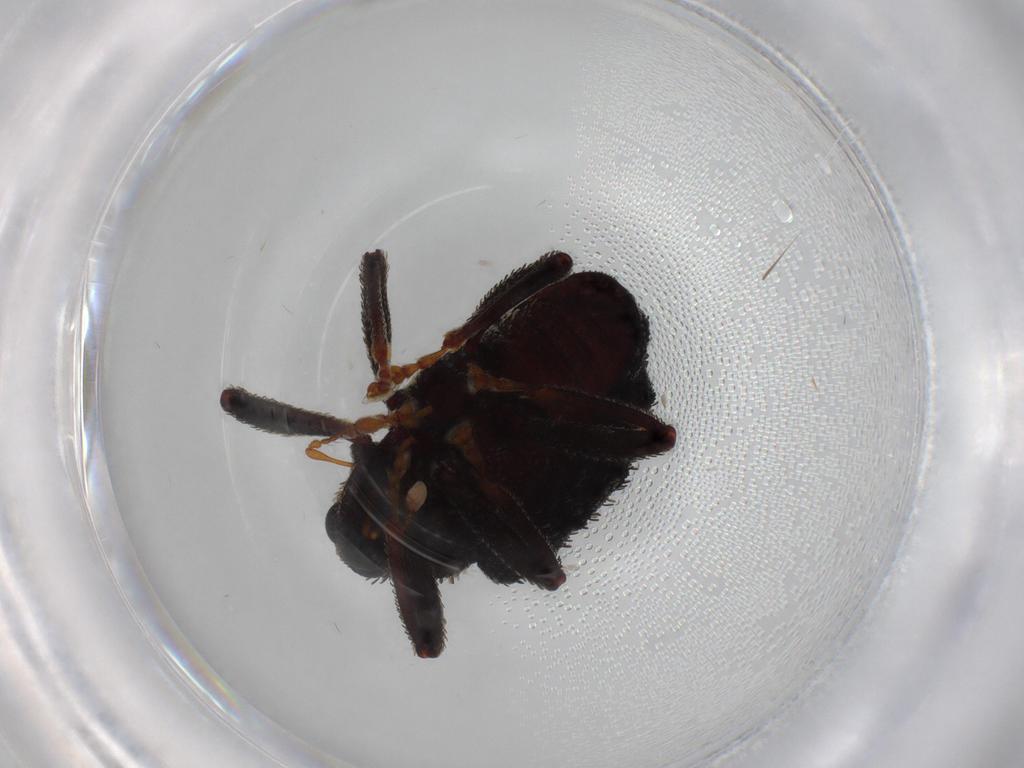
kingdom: Animalia
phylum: Arthropoda
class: Insecta
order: Coleoptera
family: Curculionidae
